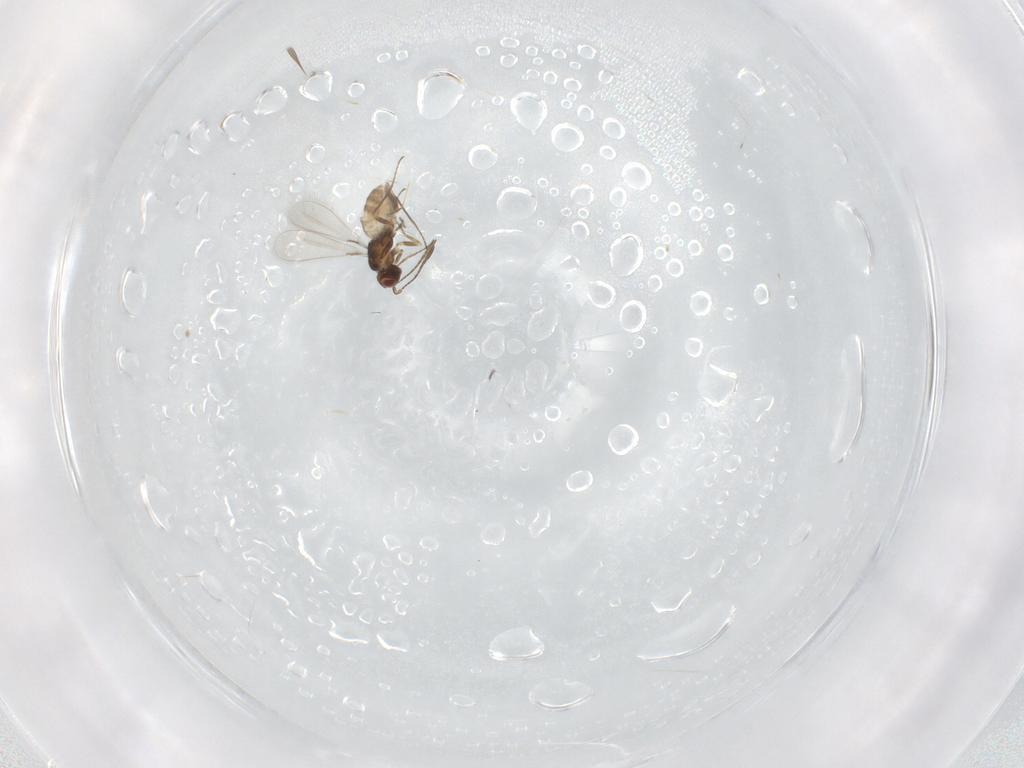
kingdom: Animalia
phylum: Arthropoda
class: Insecta
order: Hymenoptera
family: Mymaridae
